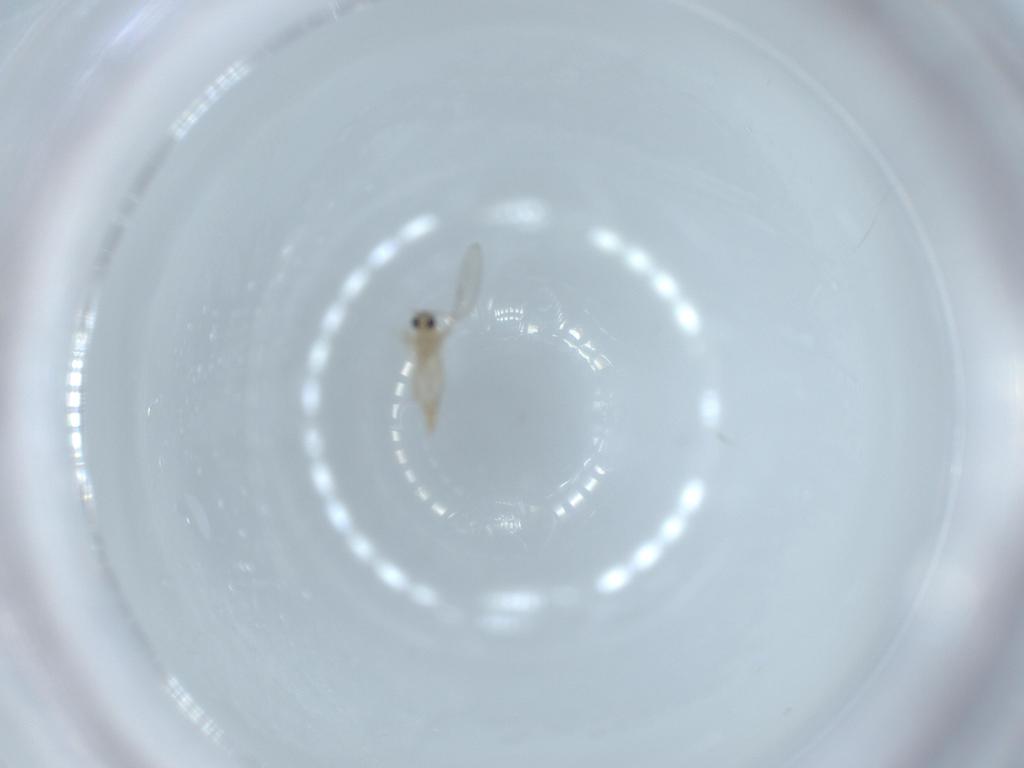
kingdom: Animalia
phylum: Arthropoda
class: Insecta
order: Diptera
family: Cecidomyiidae
